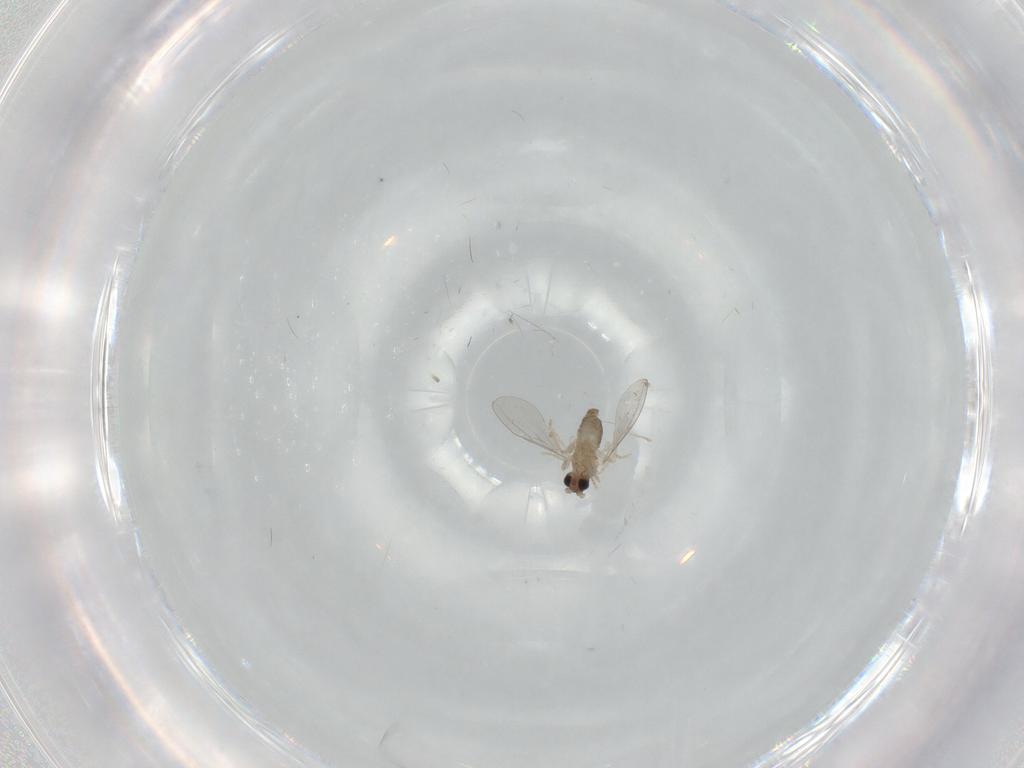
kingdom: Animalia
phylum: Arthropoda
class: Insecta
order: Diptera
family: Cecidomyiidae
